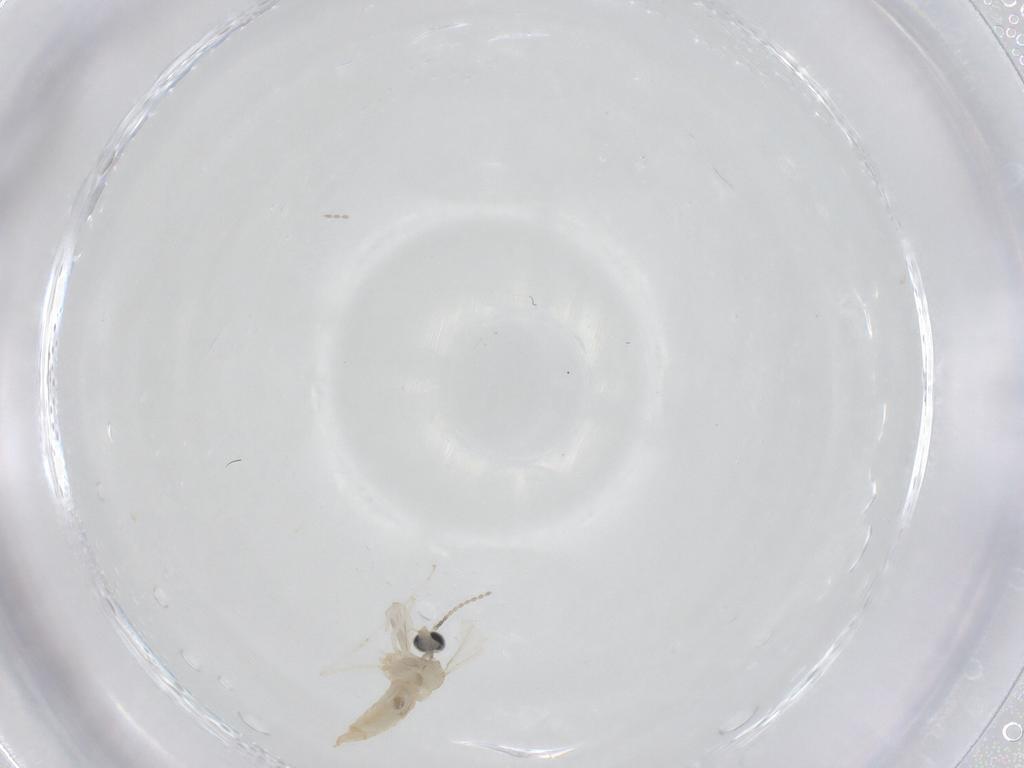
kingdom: Animalia
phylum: Arthropoda
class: Insecta
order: Diptera
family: Cecidomyiidae
